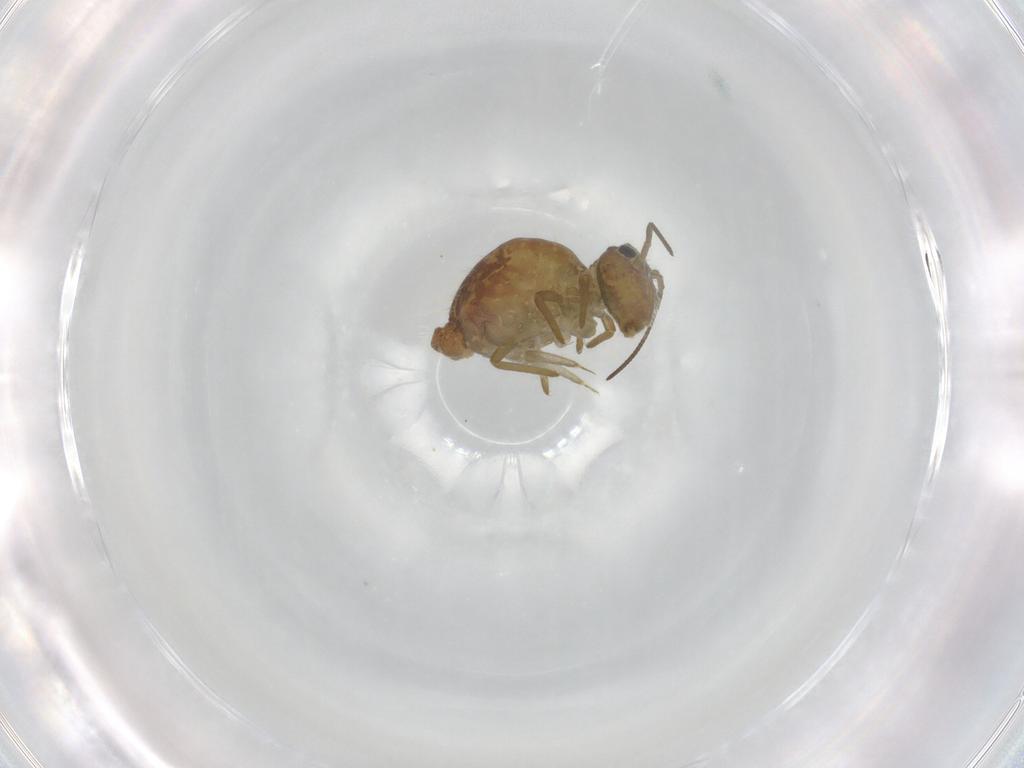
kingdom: Animalia
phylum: Arthropoda
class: Collembola
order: Symphypleona
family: Sminthuridae
